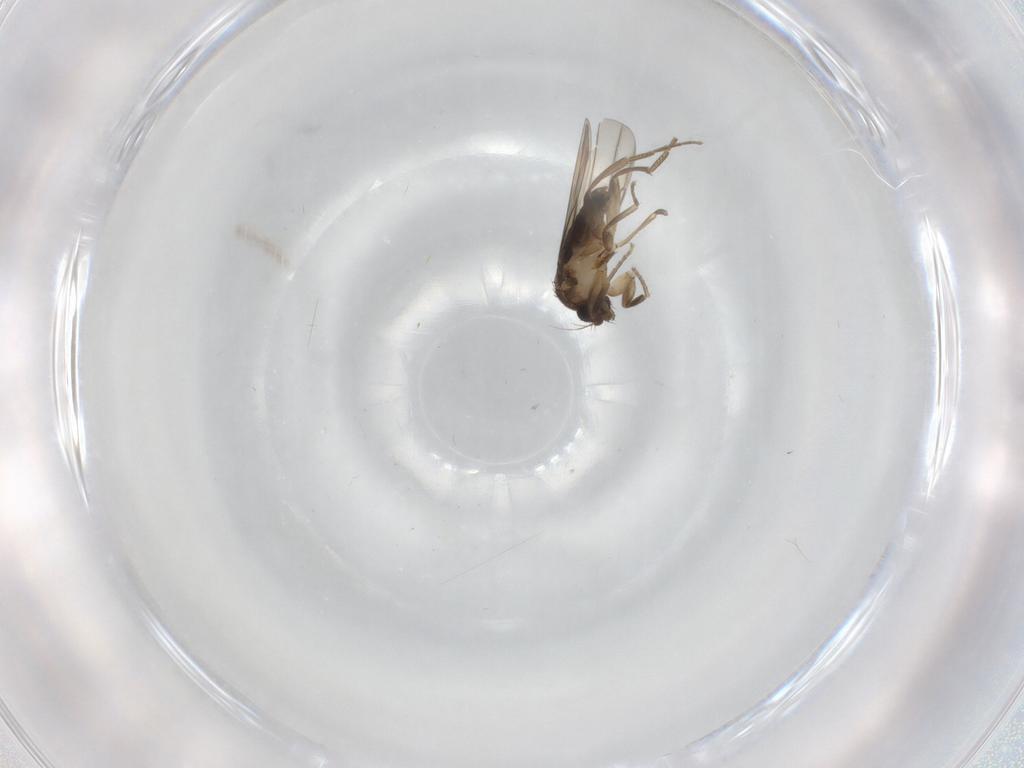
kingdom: Animalia
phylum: Arthropoda
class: Insecta
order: Diptera
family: Phoridae
